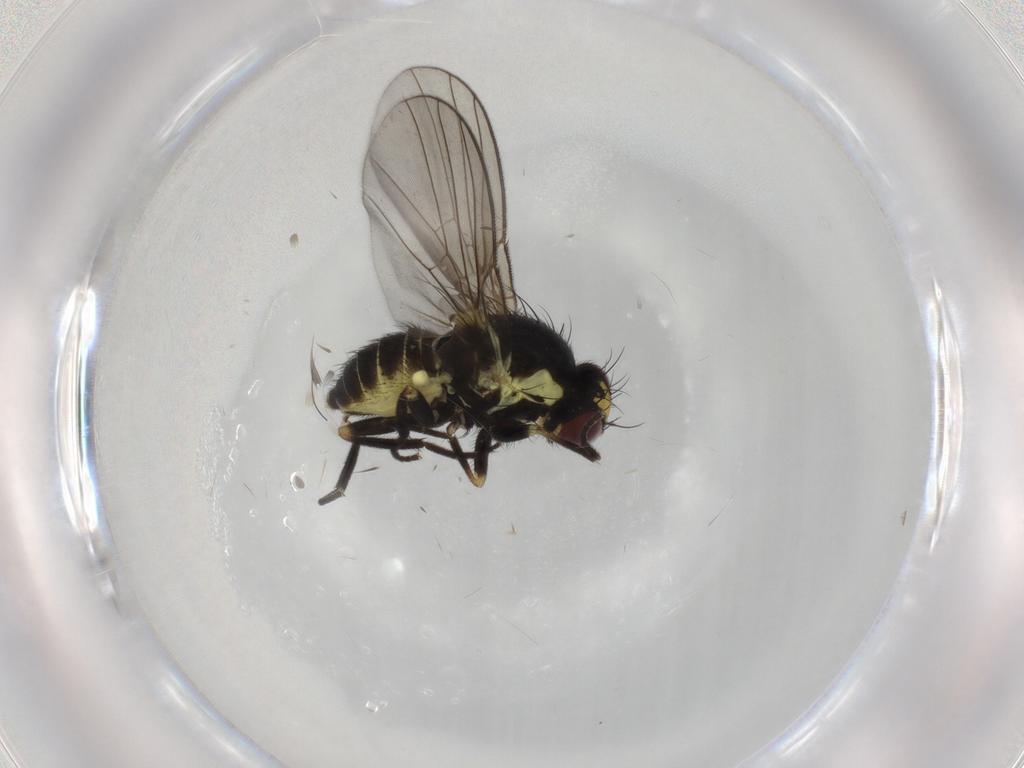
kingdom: Animalia
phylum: Arthropoda
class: Insecta
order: Diptera
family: Agromyzidae
